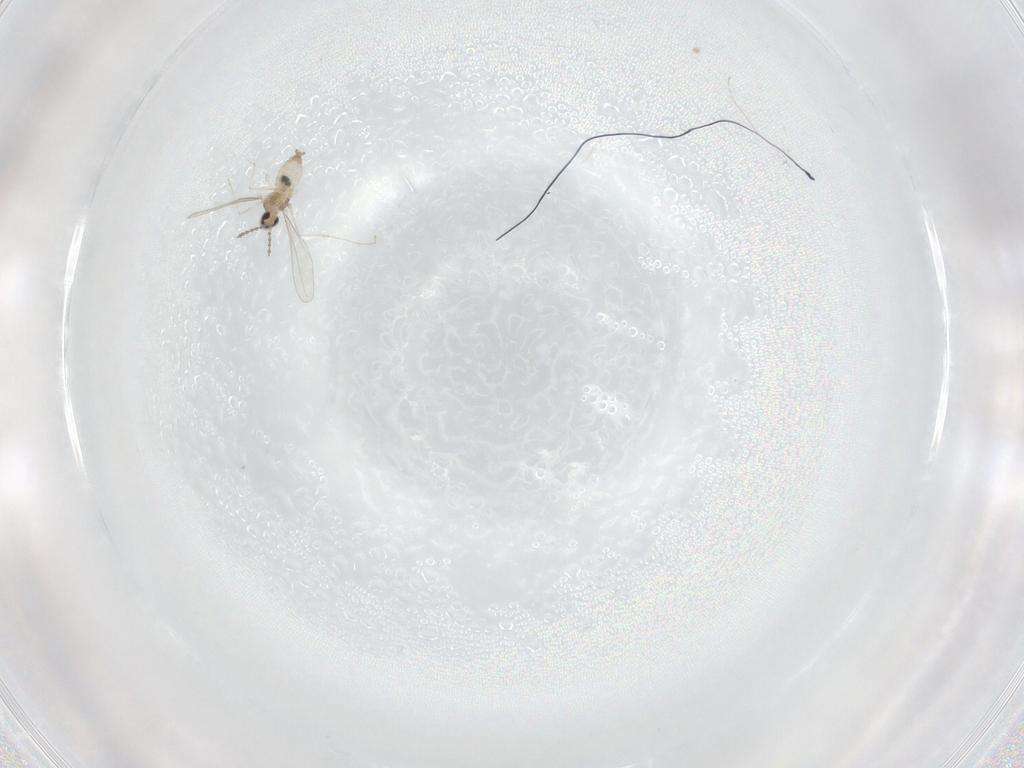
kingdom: Animalia
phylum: Arthropoda
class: Insecta
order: Diptera
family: Cecidomyiidae
